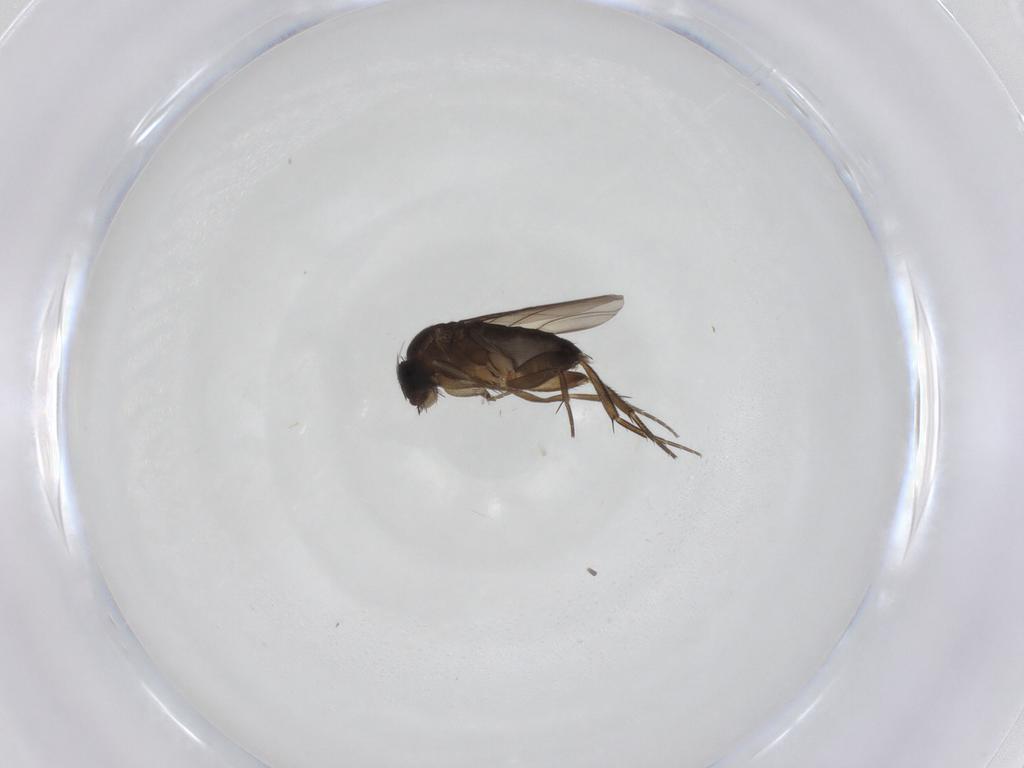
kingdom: Animalia
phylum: Arthropoda
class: Insecta
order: Diptera
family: Phoridae
